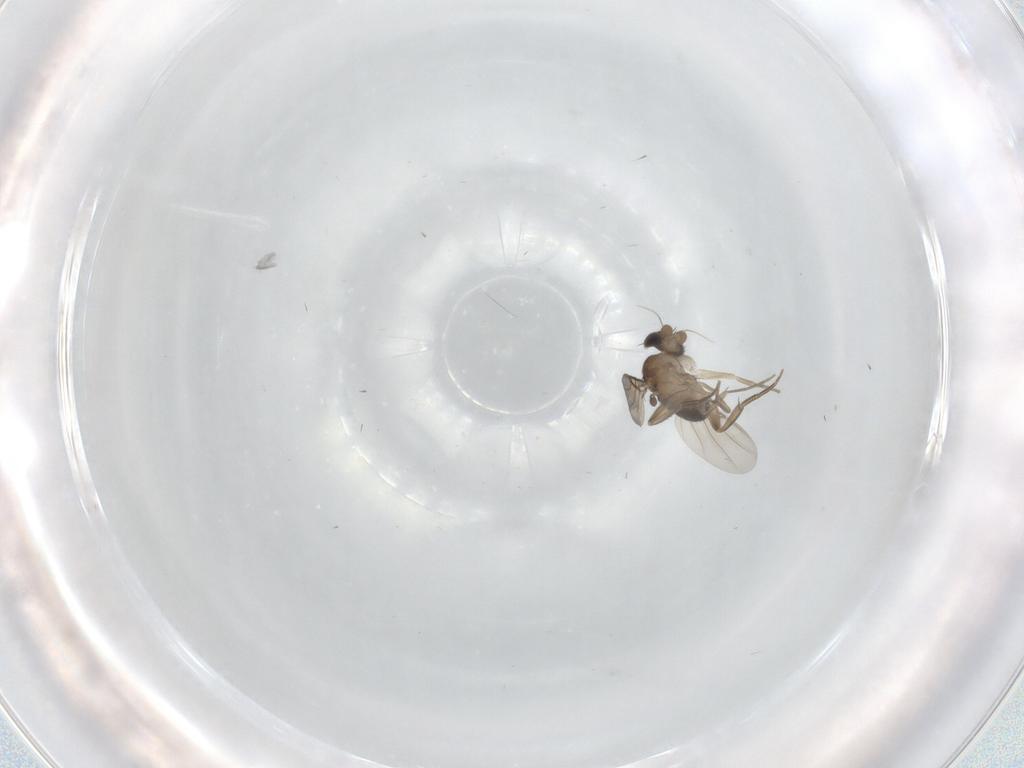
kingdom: Animalia
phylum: Arthropoda
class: Insecta
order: Diptera
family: Phoridae
